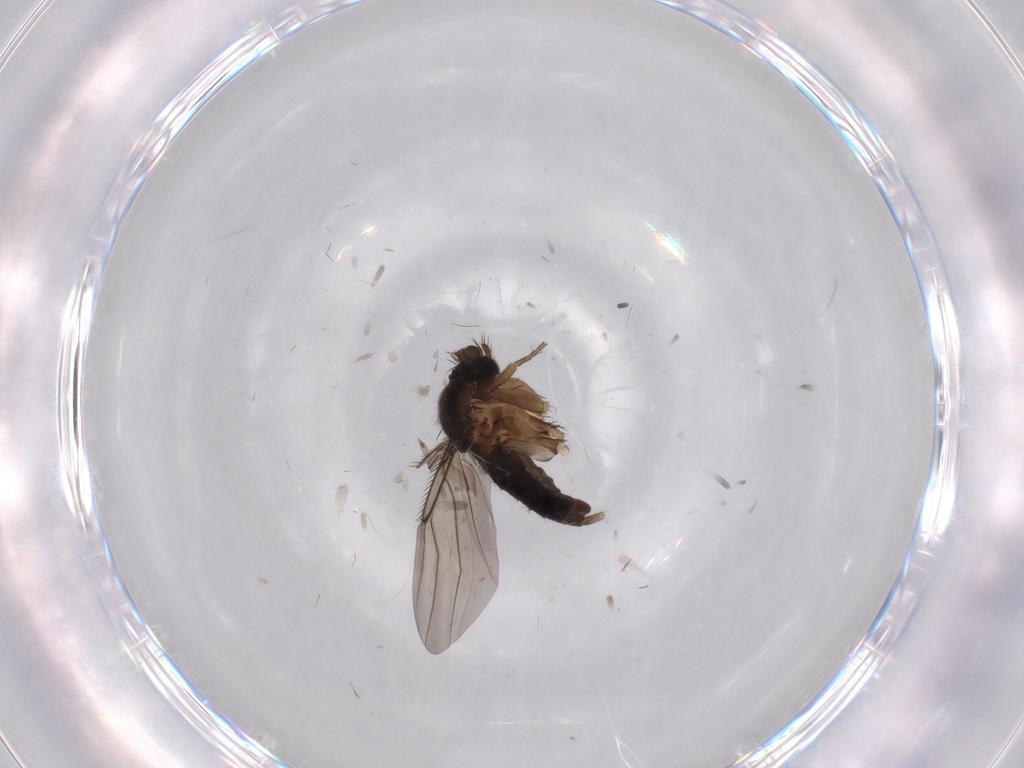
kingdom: Animalia
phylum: Arthropoda
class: Insecta
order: Diptera
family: Phoridae
